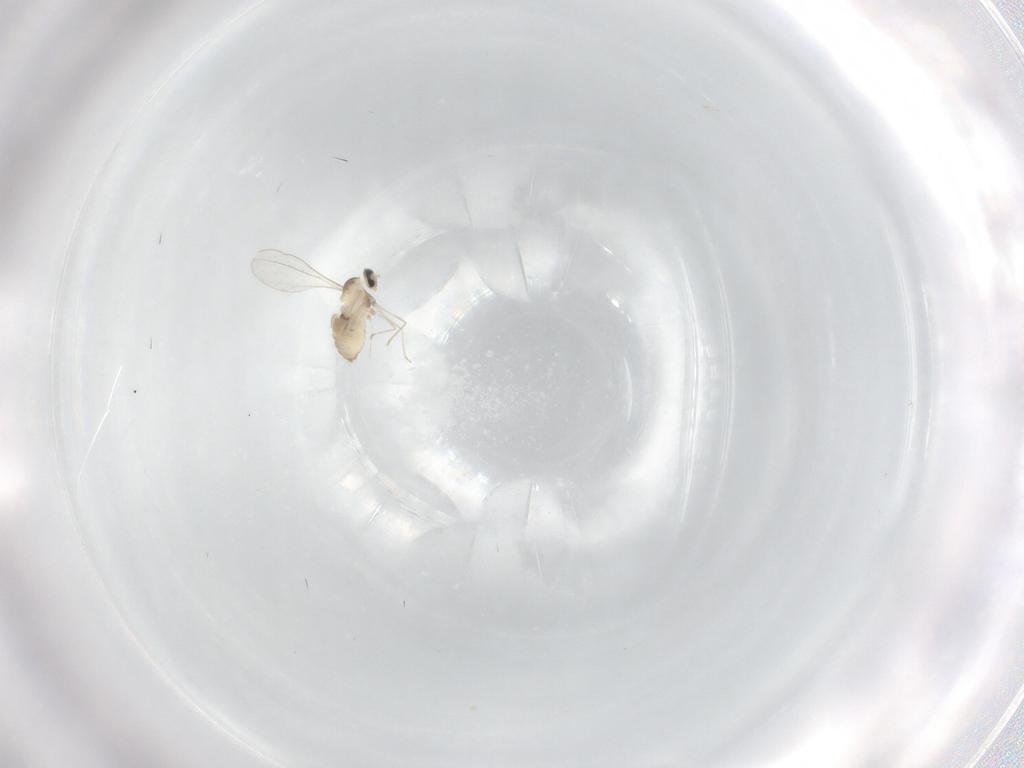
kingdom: Animalia
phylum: Arthropoda
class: Insecta
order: Diptera
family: Cecidomyiidae
